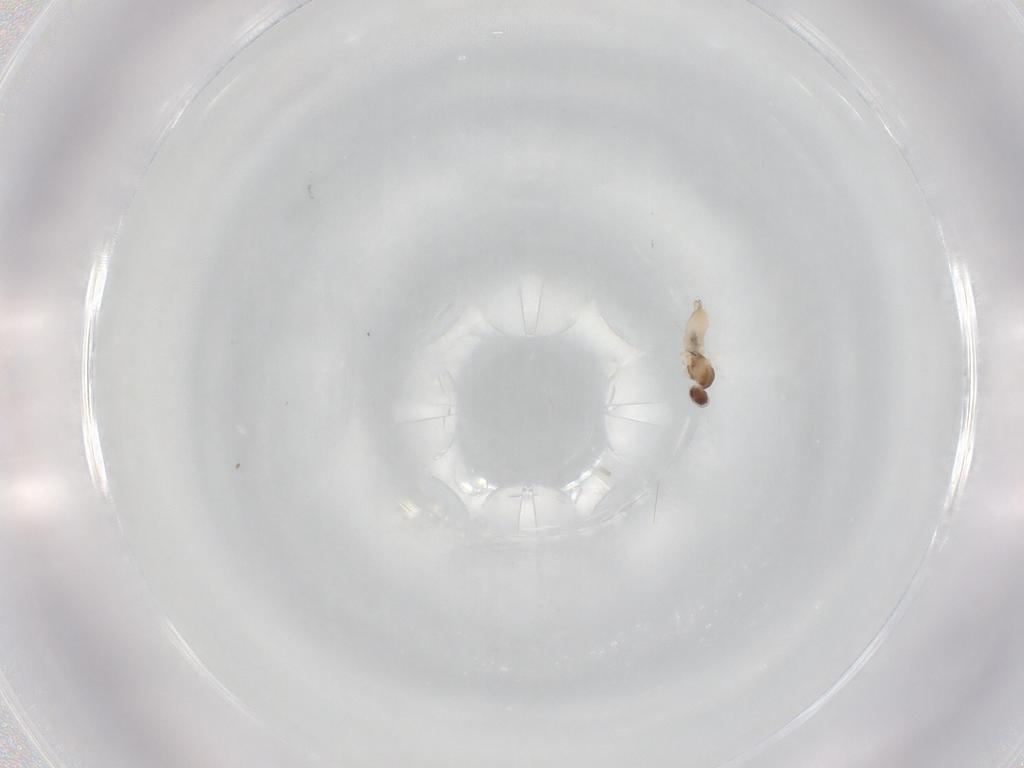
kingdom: Animalia
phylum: Arthropoda
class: Insecta
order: Diptera
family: Cecidomyiidae
